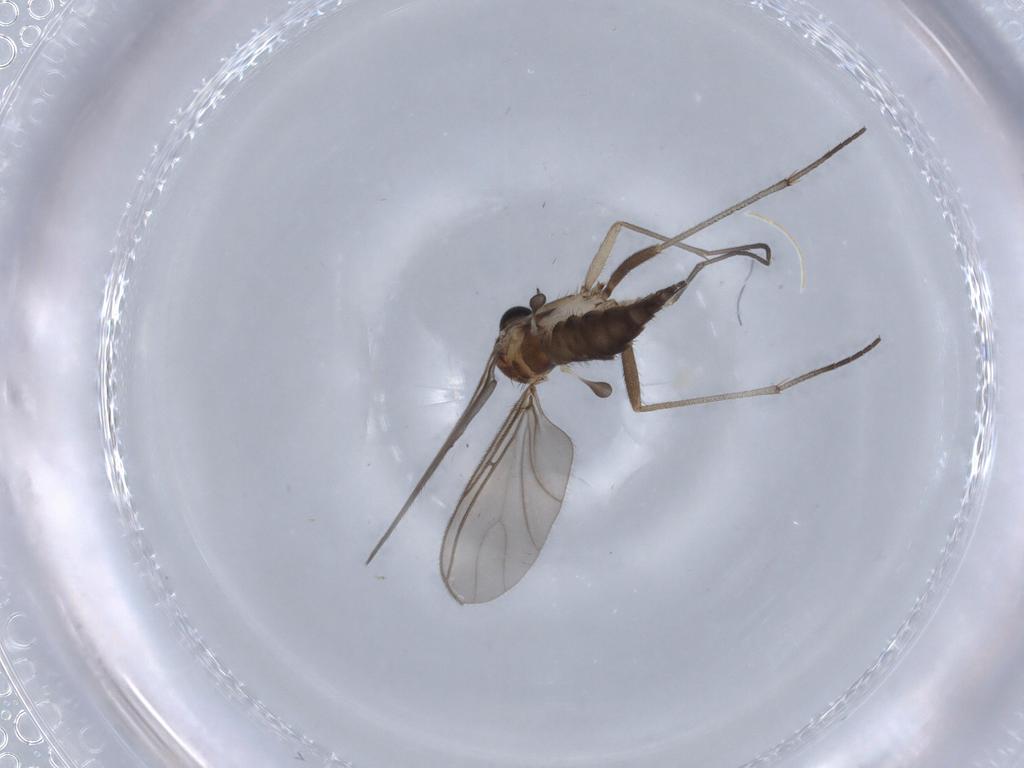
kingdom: Animalia
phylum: Arthropoda
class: Insecta
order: Diptera
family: Sciaridae
